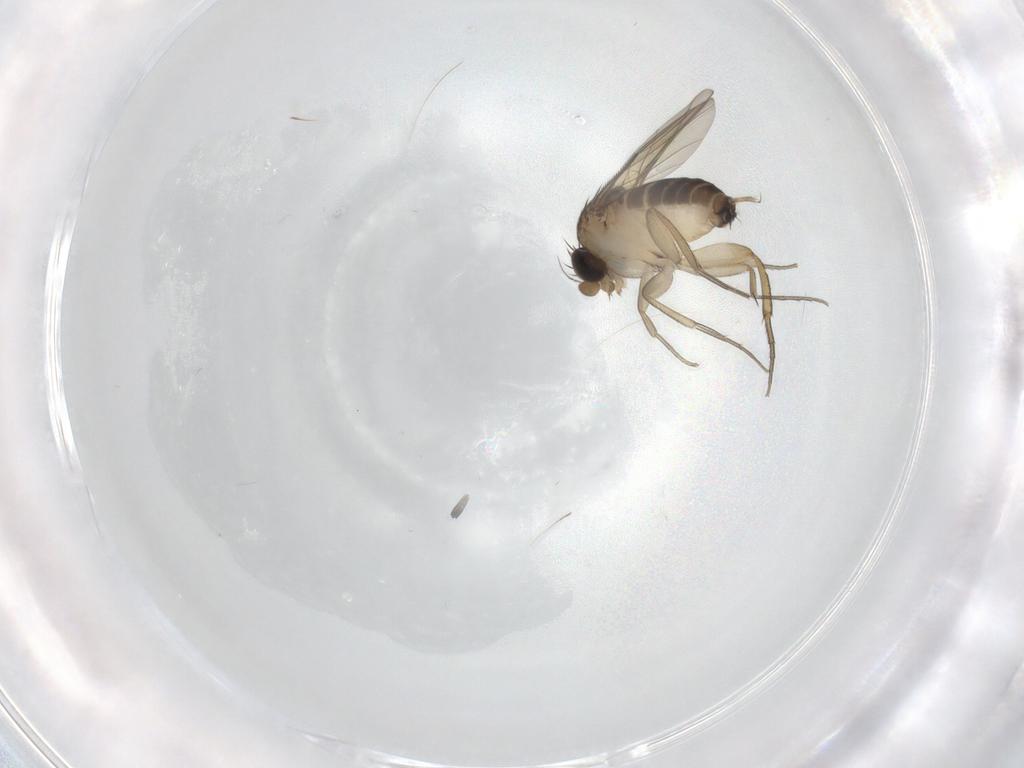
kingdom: Animalia
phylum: Arthropoda
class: Insecta
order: Diptera
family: Phoridae
